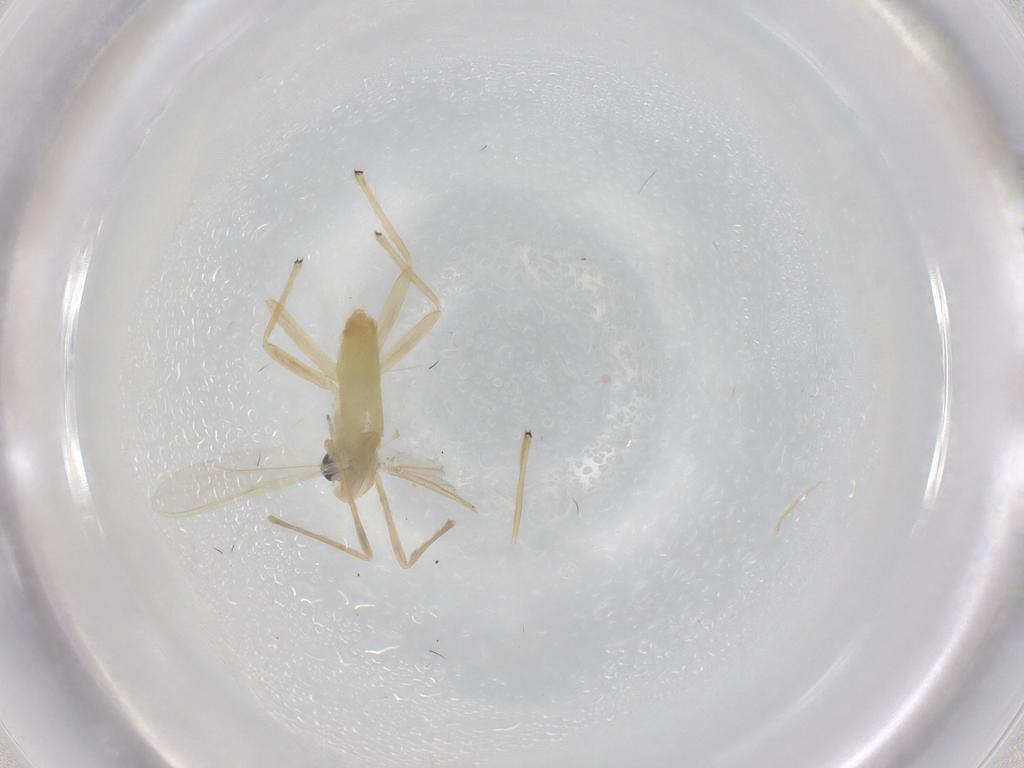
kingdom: Animalia
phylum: Arthropoda
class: Insecta
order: Diptera
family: Chironomidae
